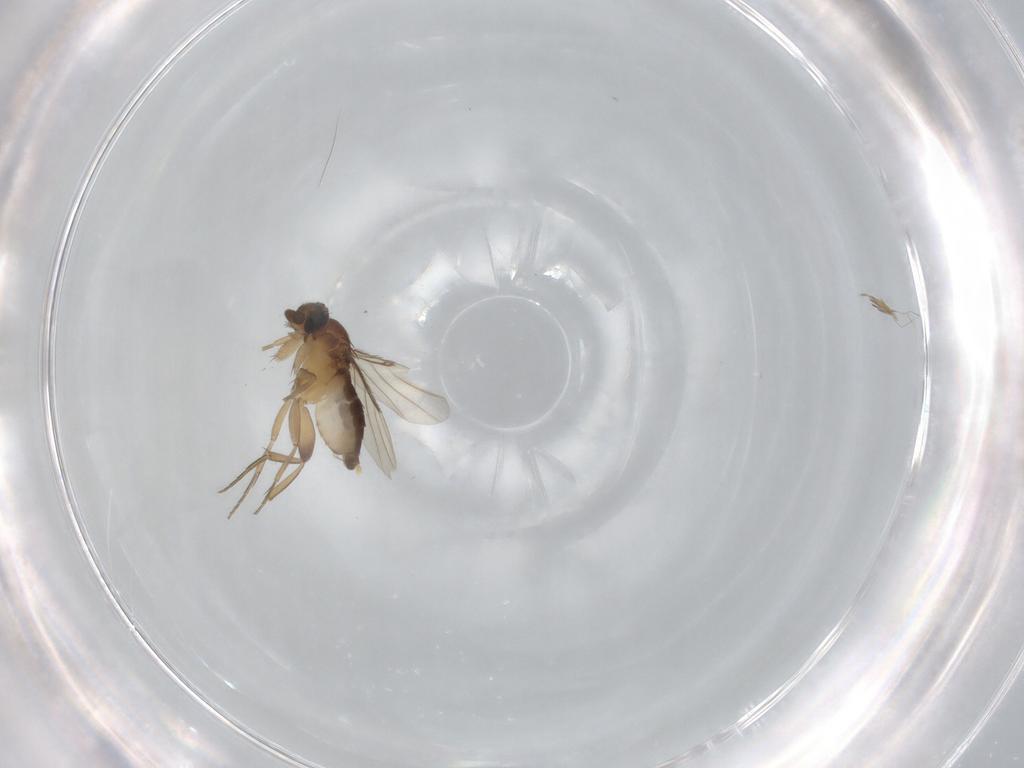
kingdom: Animalia
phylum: Arthropoda
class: Insecta
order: Diptera
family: Phoridae
